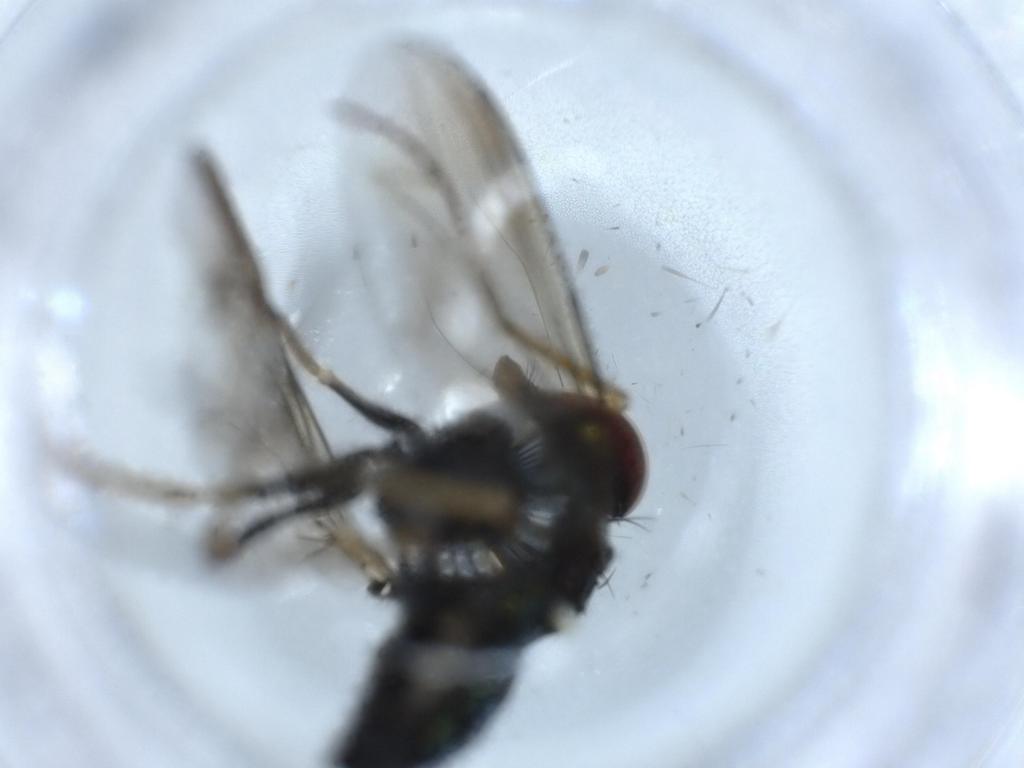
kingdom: Animalia
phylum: Arthropoda
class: Insecta
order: Diptera
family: Dolichopodidae
